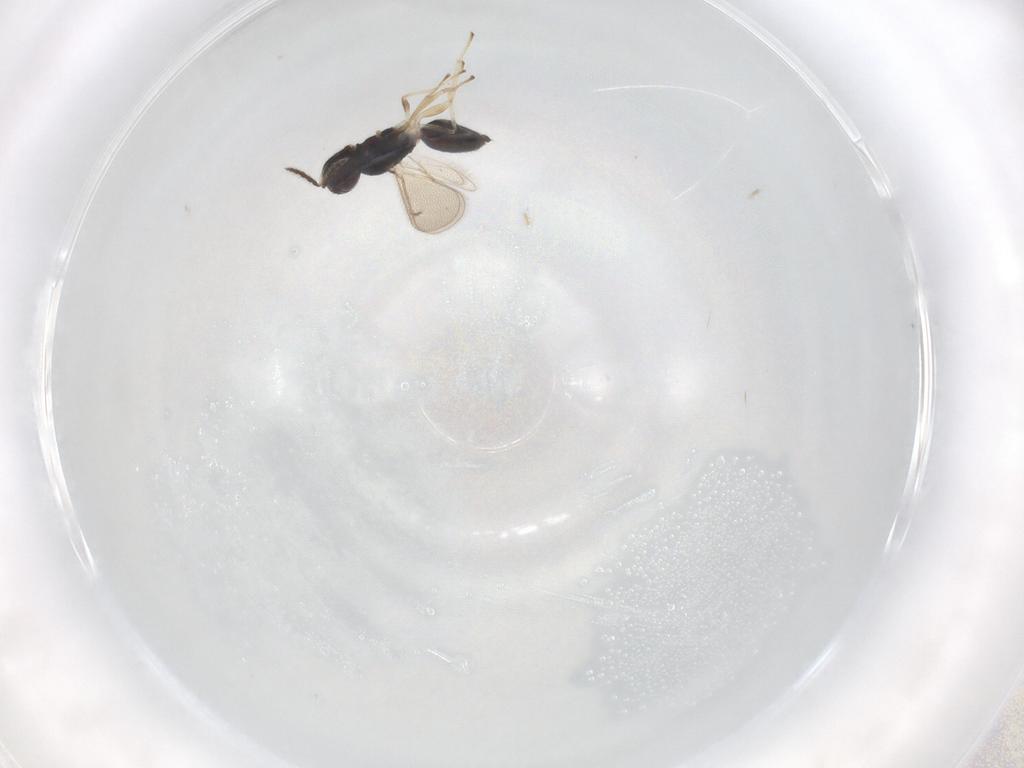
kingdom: Animalia
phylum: Arthropoda
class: Insecta
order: Hymenoptera
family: Eulophidae
